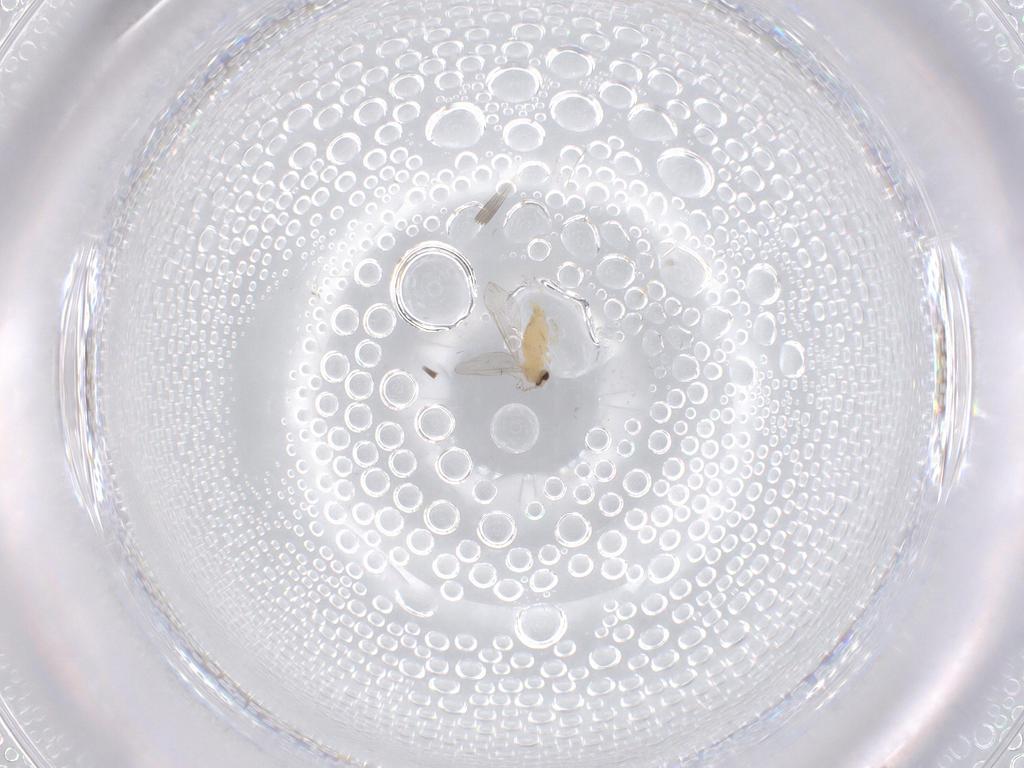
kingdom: Animalia
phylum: Arthropoda
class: Insecta
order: Diptera
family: Cecidomyiidae
